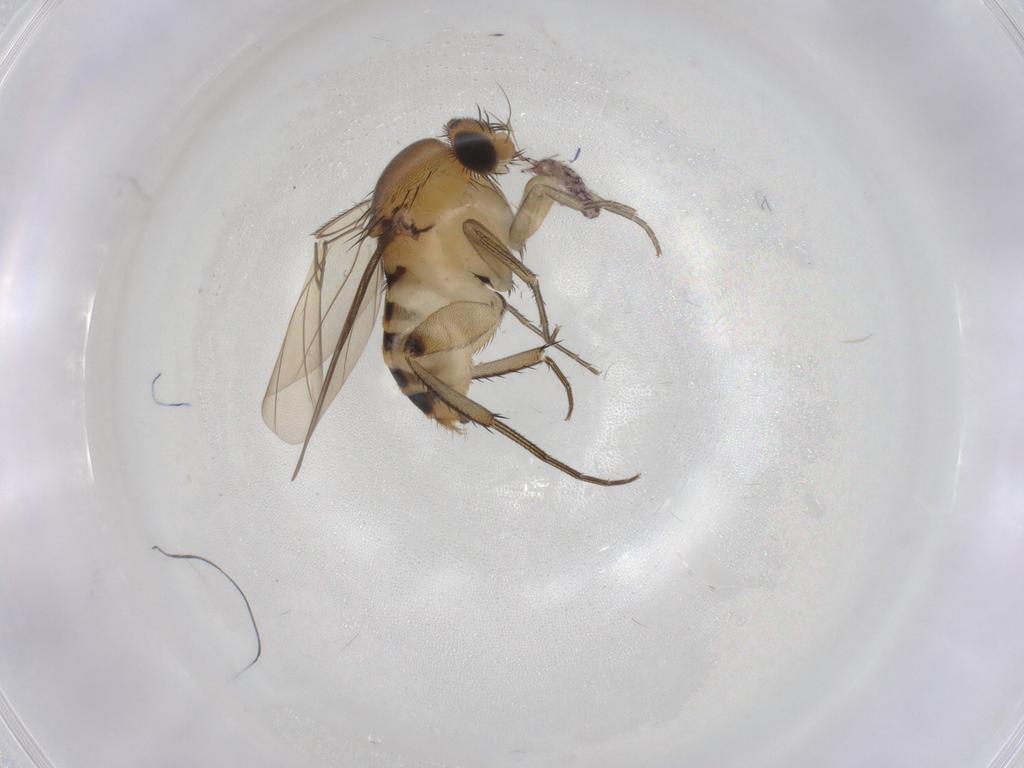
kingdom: Animalia
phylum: Arthropoda
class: Insecta
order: Diptera
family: Sciaridae
